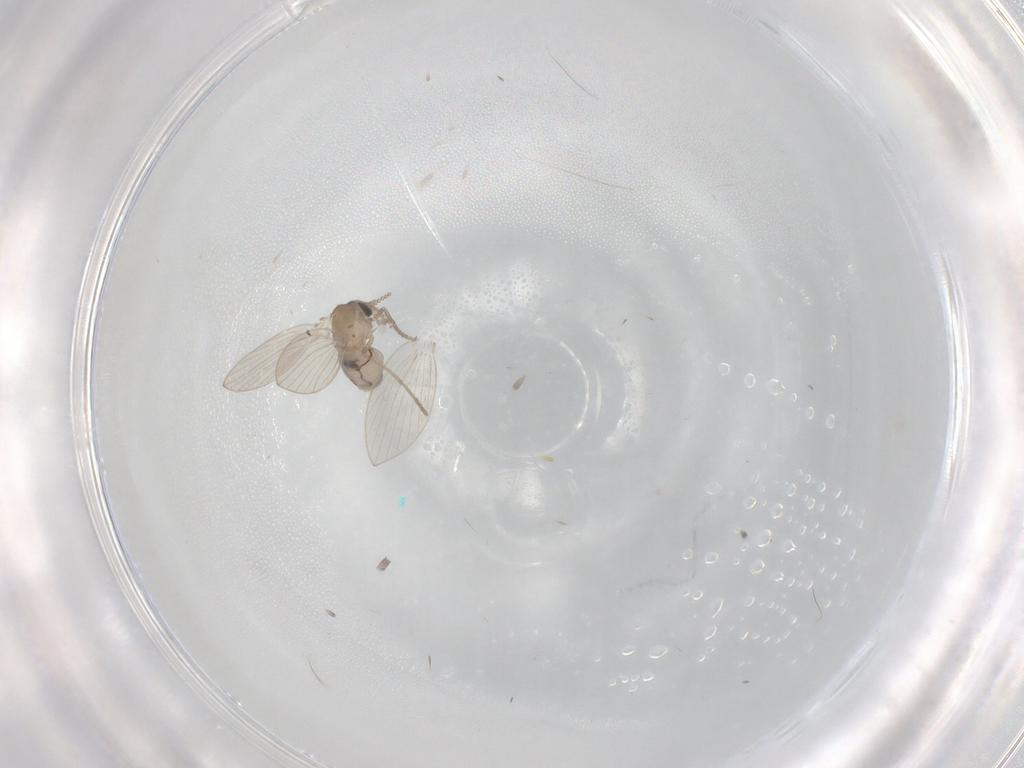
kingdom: Animalia
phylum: Arthropoda
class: Insecta
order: Diptera
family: Psychodidae
